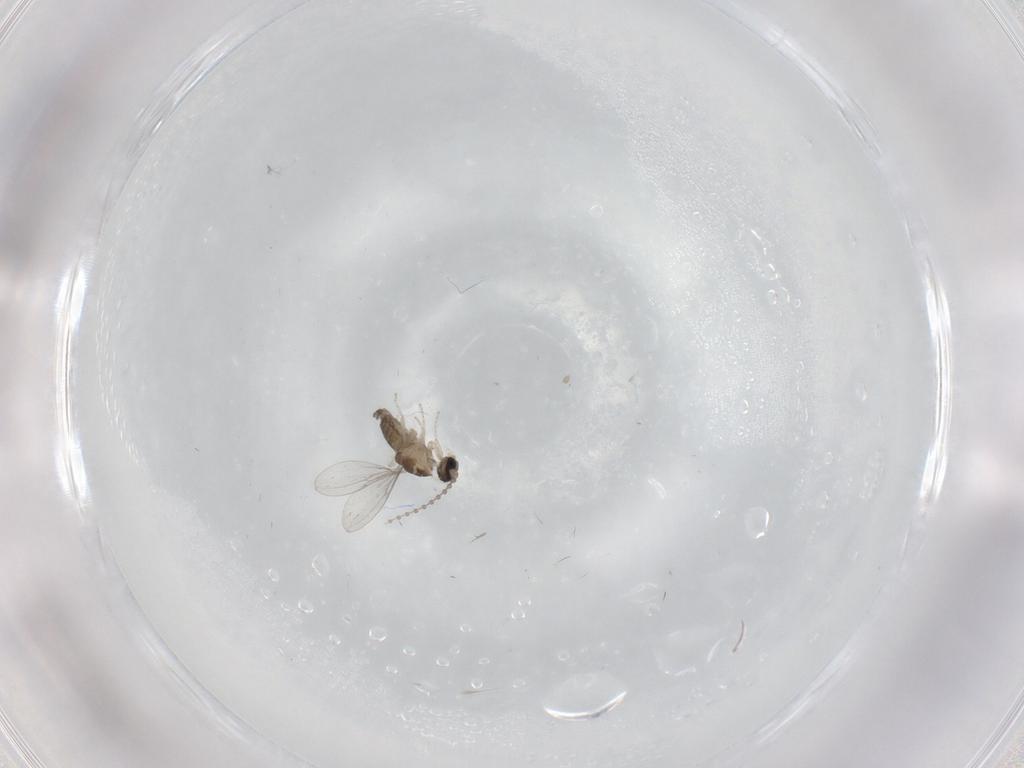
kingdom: Animalia
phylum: Arthropoda
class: Insecta
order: Diptera
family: Cecidomyiidae
